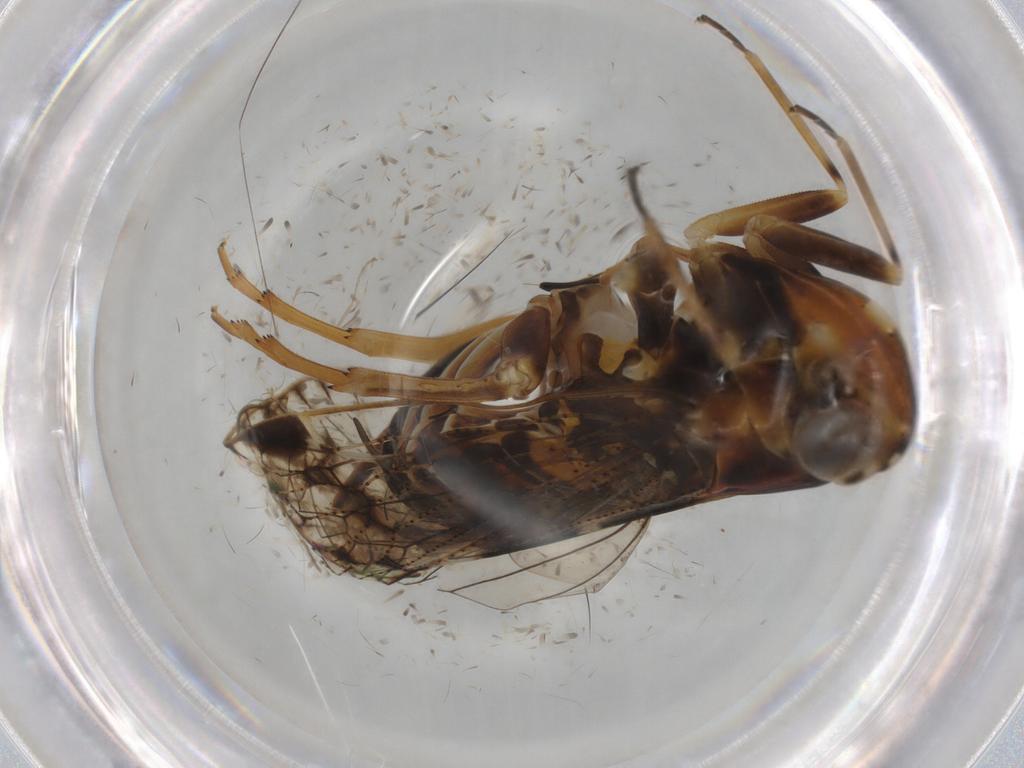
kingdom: Animalia
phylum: Arthropoda
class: Insecta
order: Hemiptera
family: Cixiidae
